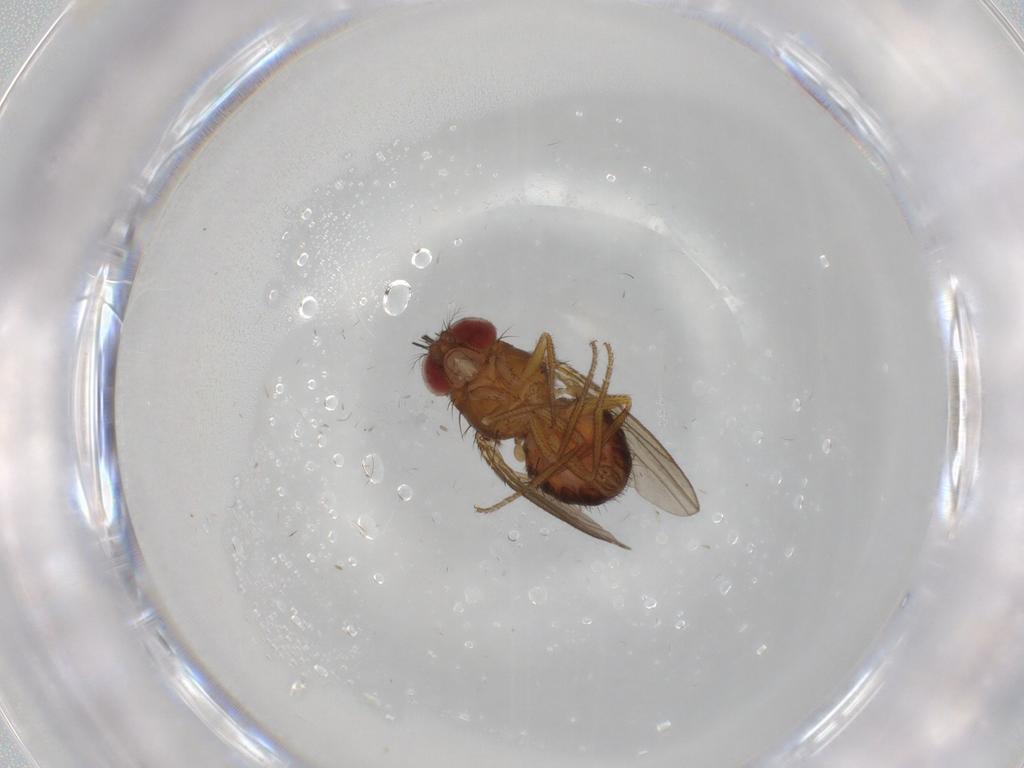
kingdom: Animalia
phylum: Arthropoda
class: Insecta
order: Diptera
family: Drosophilidae
